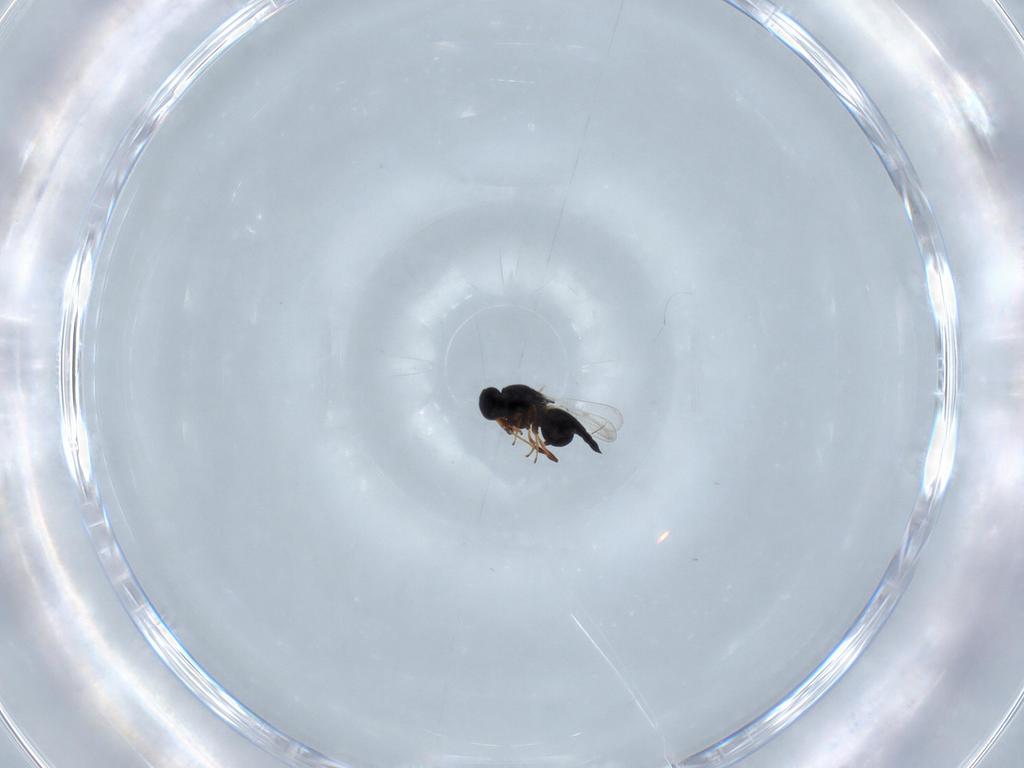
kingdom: Animalia
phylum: Arthropoda
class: Insecta
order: Hymenoptera
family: Platygastridae
